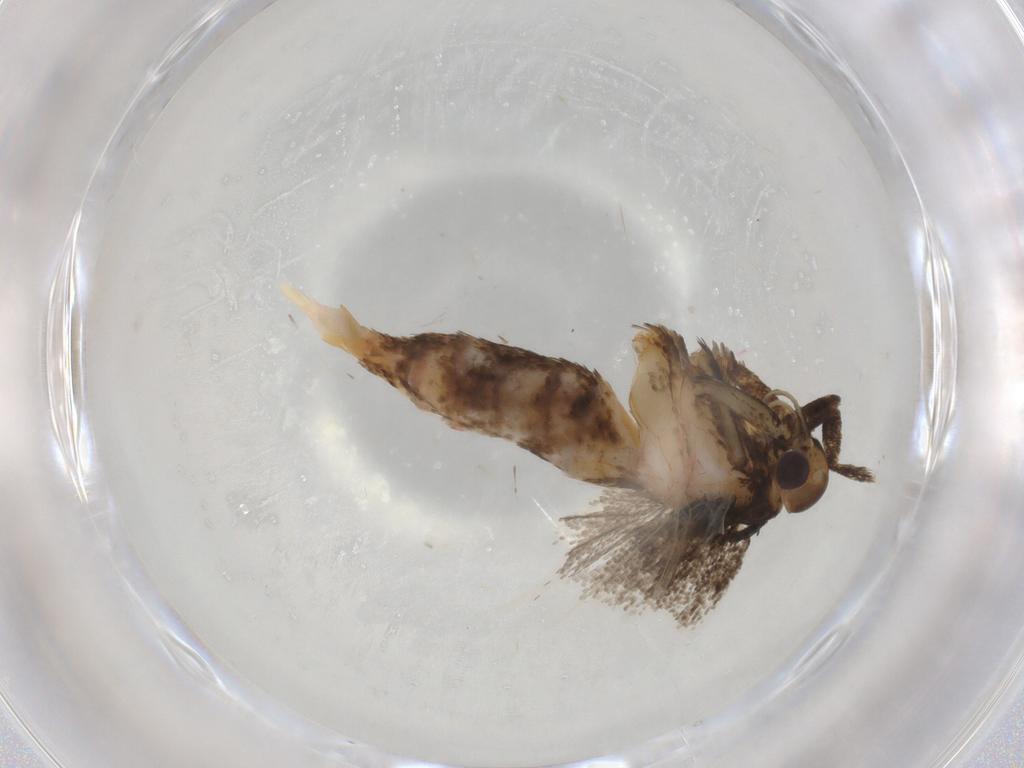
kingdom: Animalia
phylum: Arthropoda
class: Insecta
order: Lepidoptera
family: Lecithoceridae
